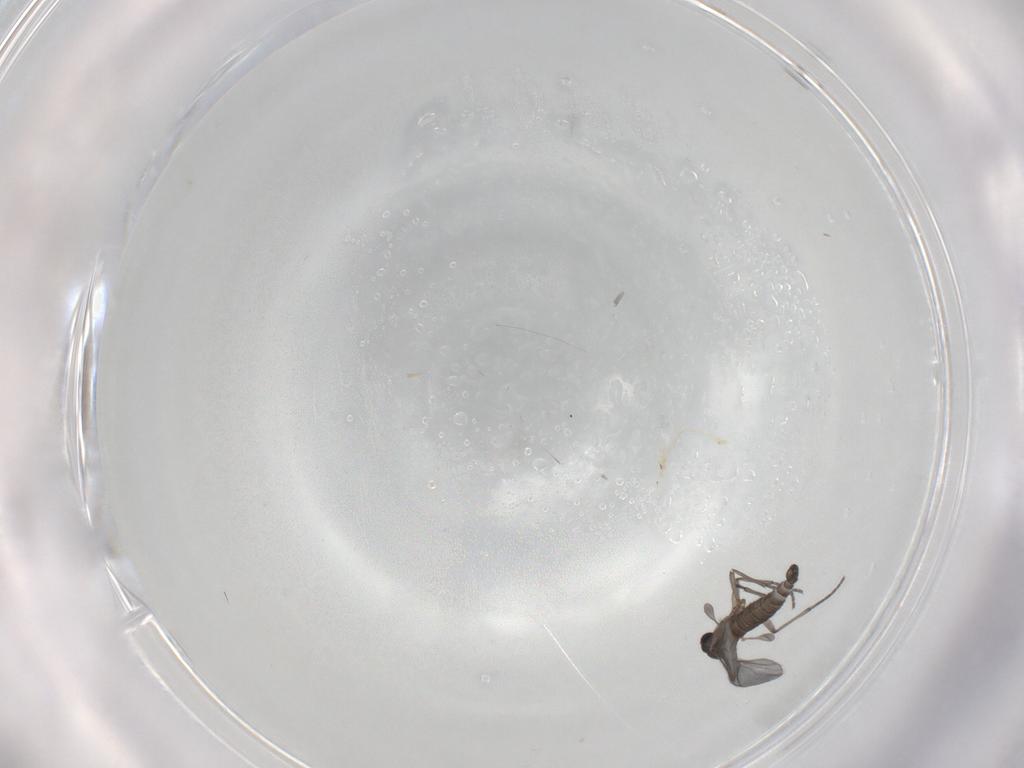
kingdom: Animalia
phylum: Arthropoda
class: Insecta
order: Diptera
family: Sciaridae
